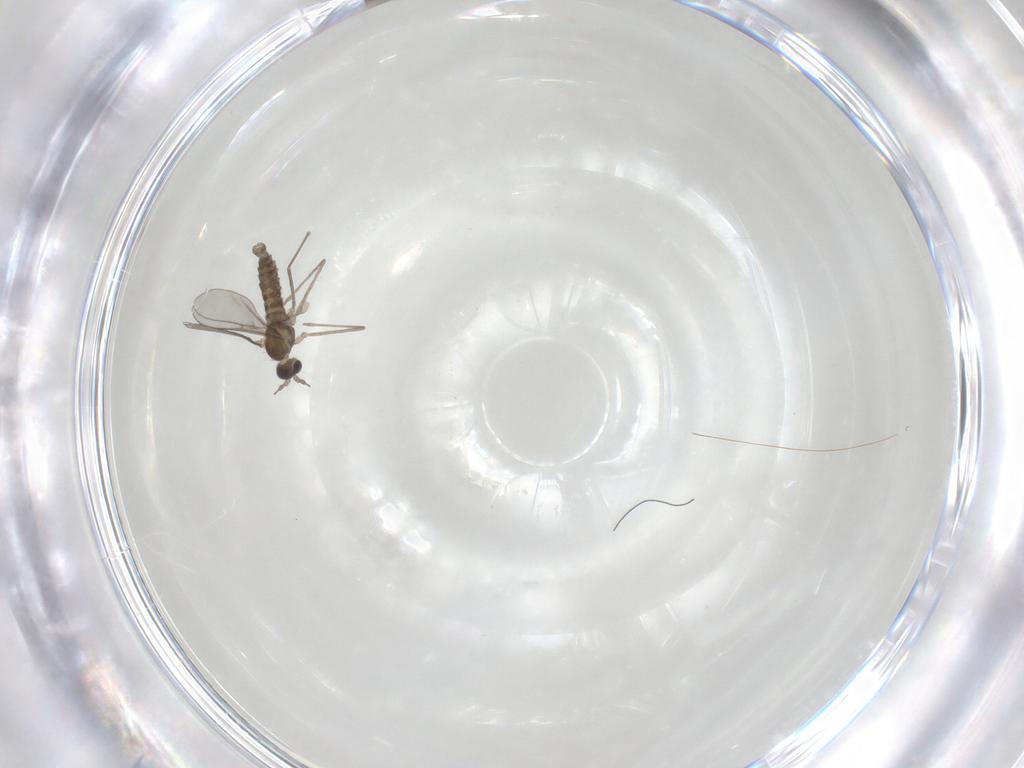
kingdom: Animalia
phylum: Arthropoda
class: Insecta
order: Diptera
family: Cecidomyiidae
